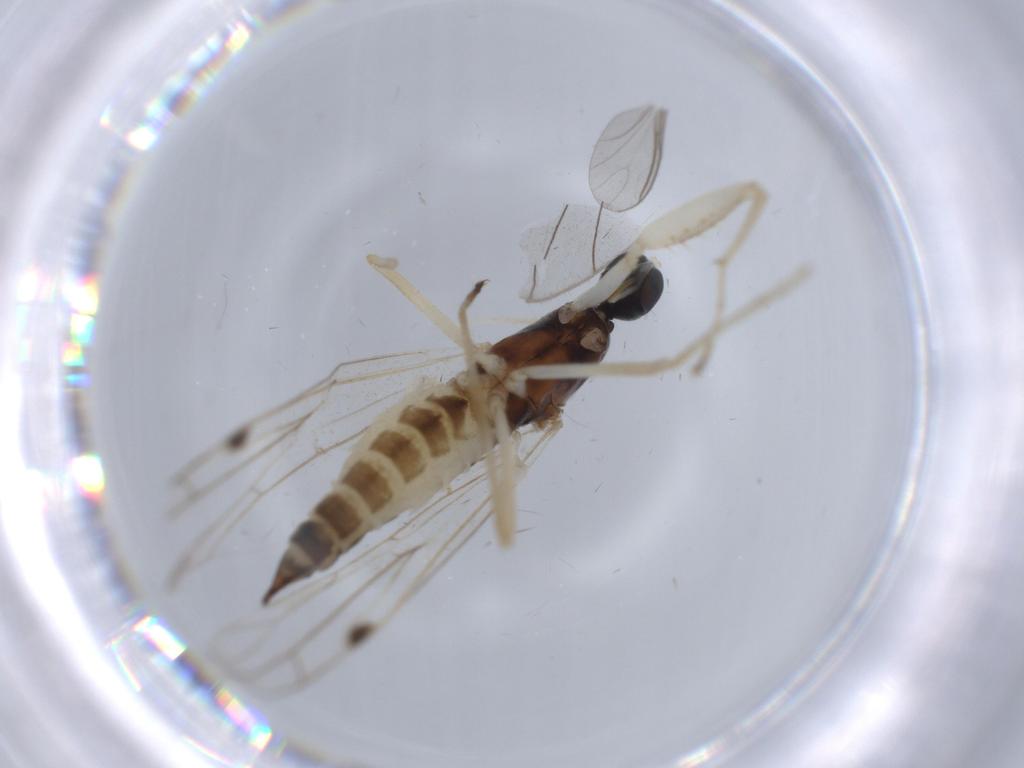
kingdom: Animalia
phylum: Arthropoda
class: Insecta
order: Diptera
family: Empididae
